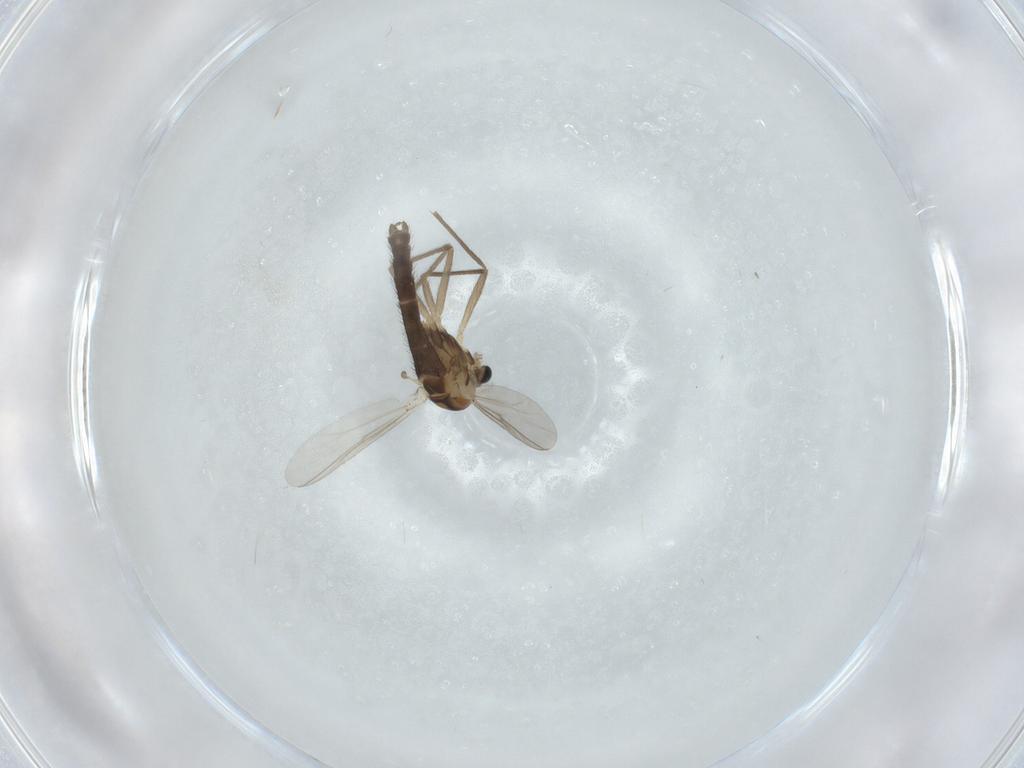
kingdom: Animalia
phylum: Arthropoda
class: Insecta
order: Diptera
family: Chironomidae
